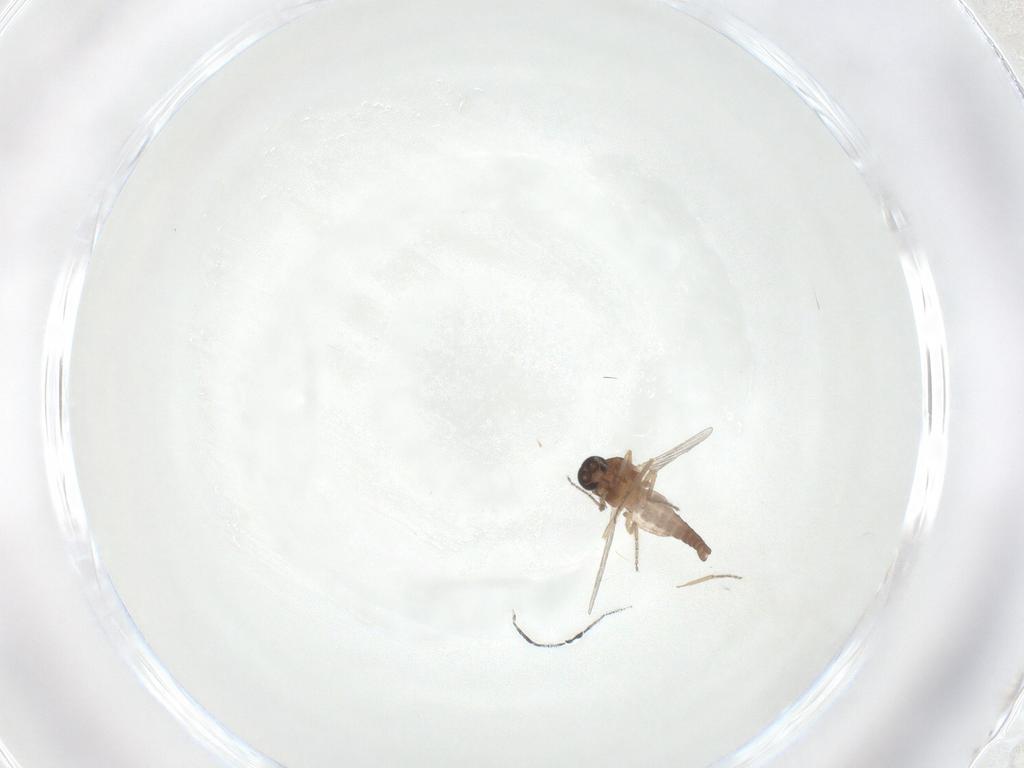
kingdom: Animalia
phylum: Arthropoda
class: Insecta
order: Diptera
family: Ceratopogonidae
